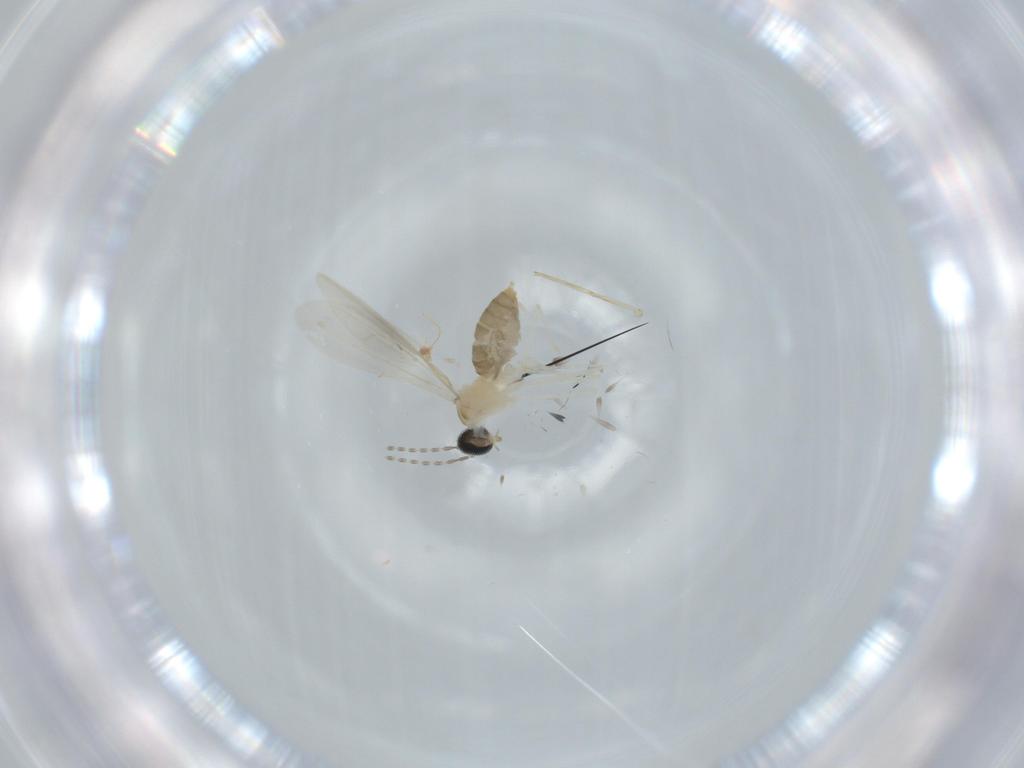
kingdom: Animalia
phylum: Arthropoda
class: Insecta
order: Diptera
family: Cecidomyiidae
